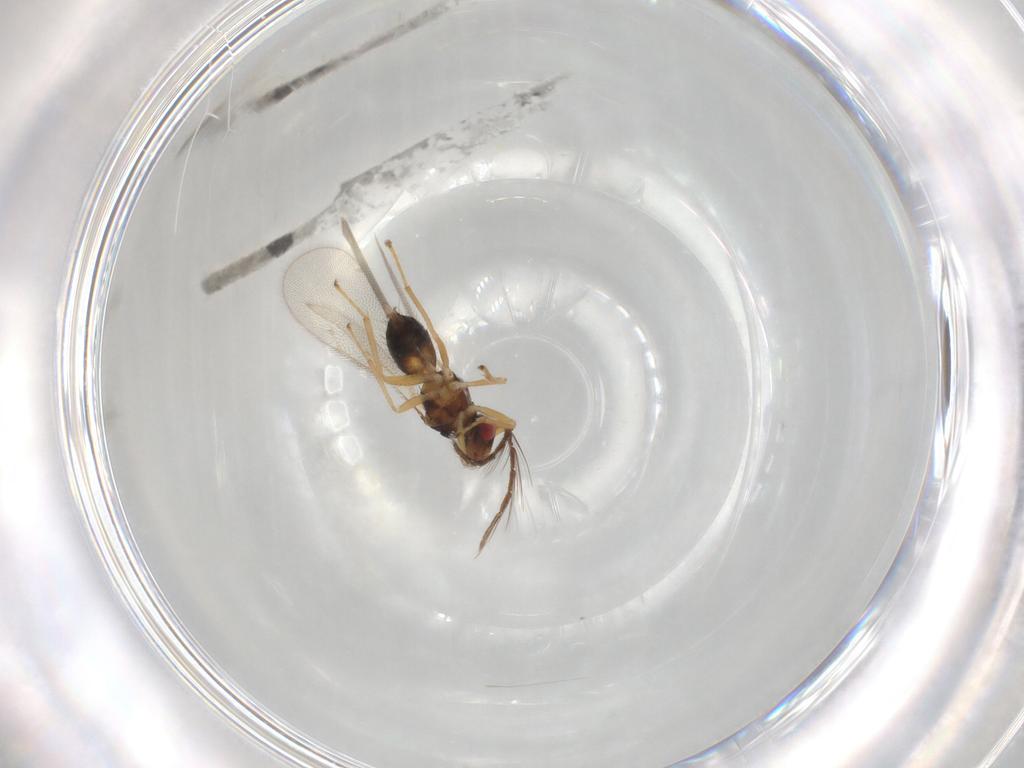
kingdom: Animalia
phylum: Arthropoda
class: Insecta
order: Hymenoptera
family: Eulophidae
